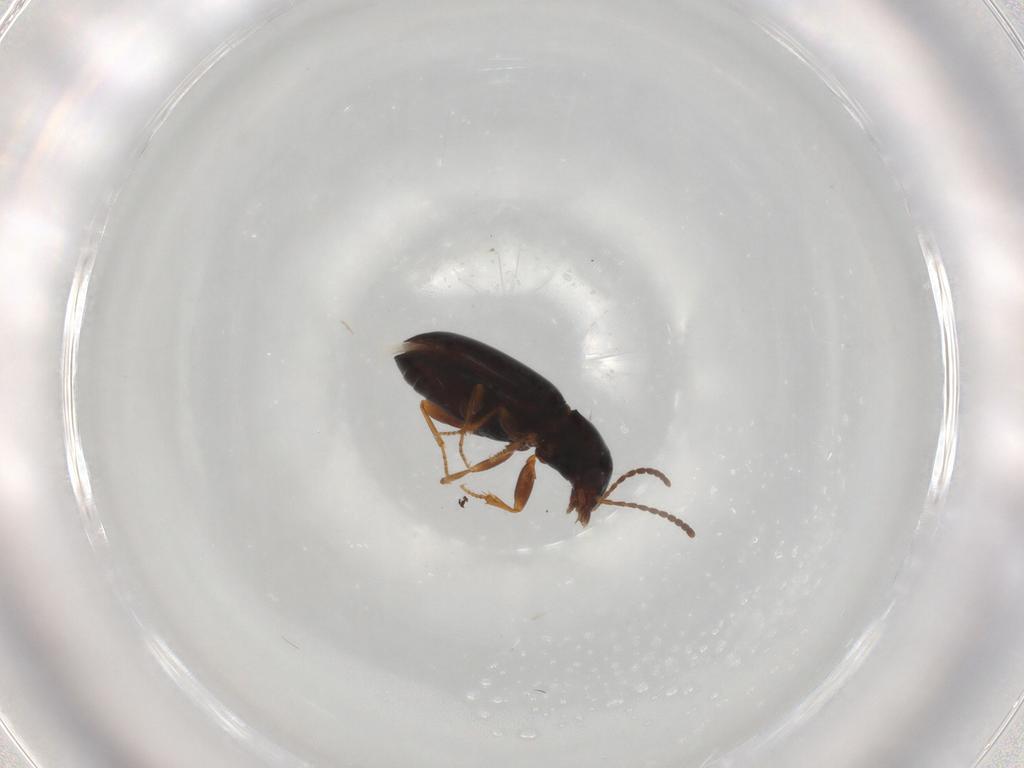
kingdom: Animalia
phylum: Arthropoda
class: Insecta
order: Coleoptera
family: Carabidae
